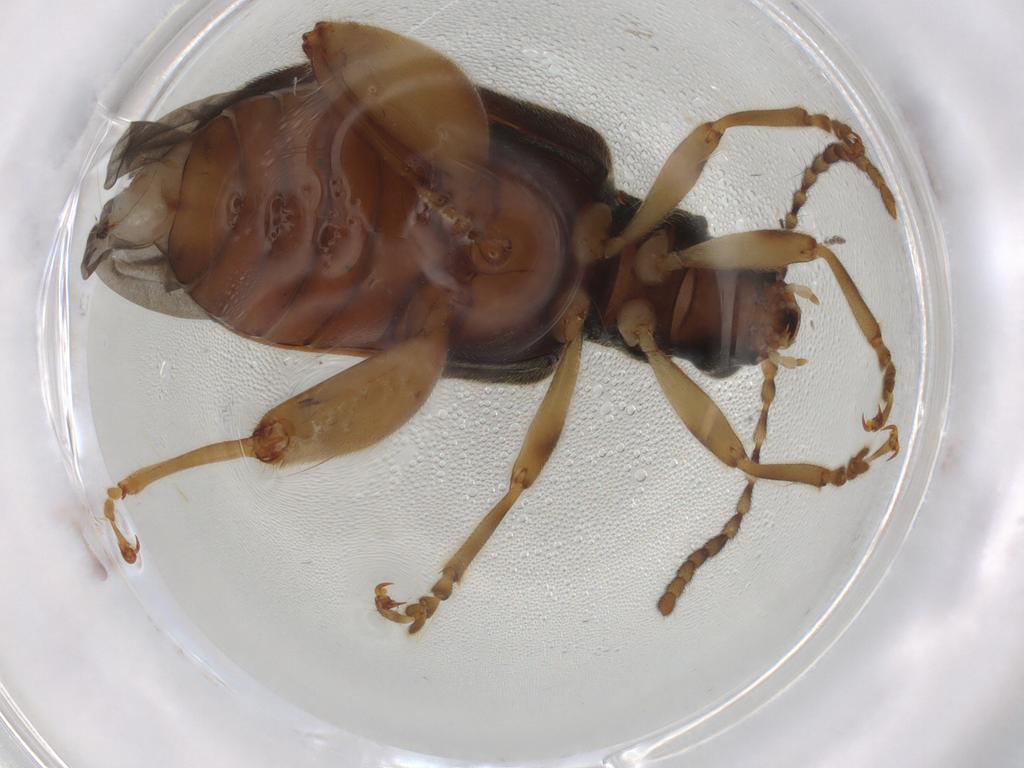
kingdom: Animalia
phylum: Arthropoda
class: Insecta
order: Coleoptera
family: Chrysomelidae
